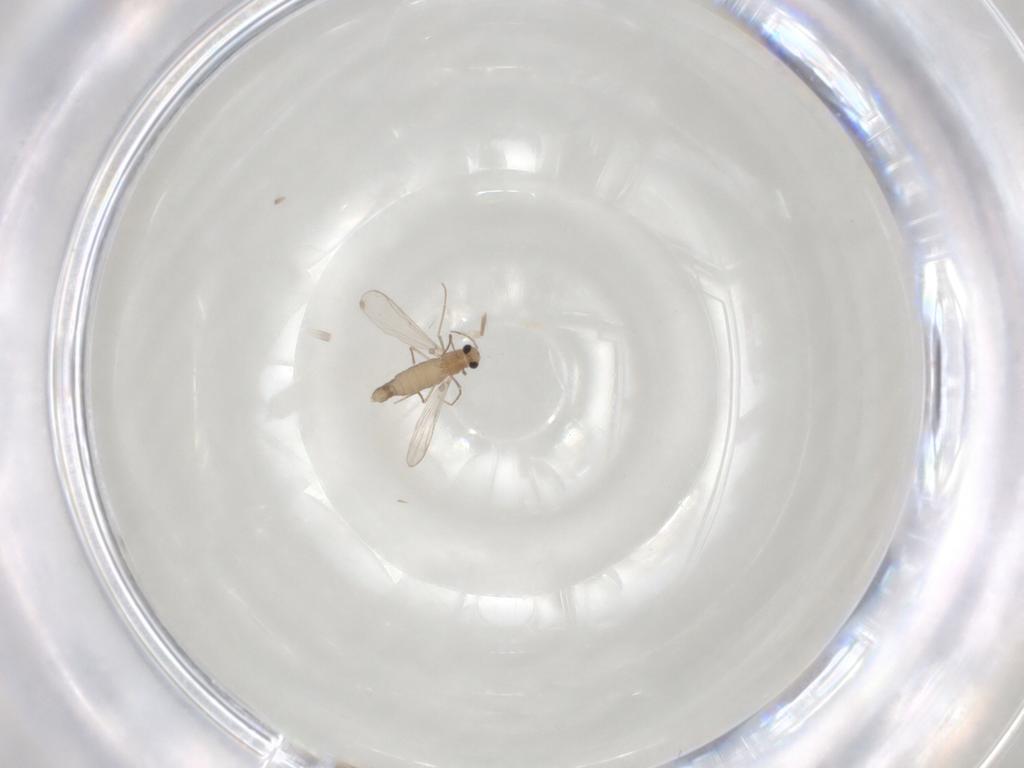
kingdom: Animalia
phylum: Arthropoda
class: Insecta
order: Diptera
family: Chironomidae
